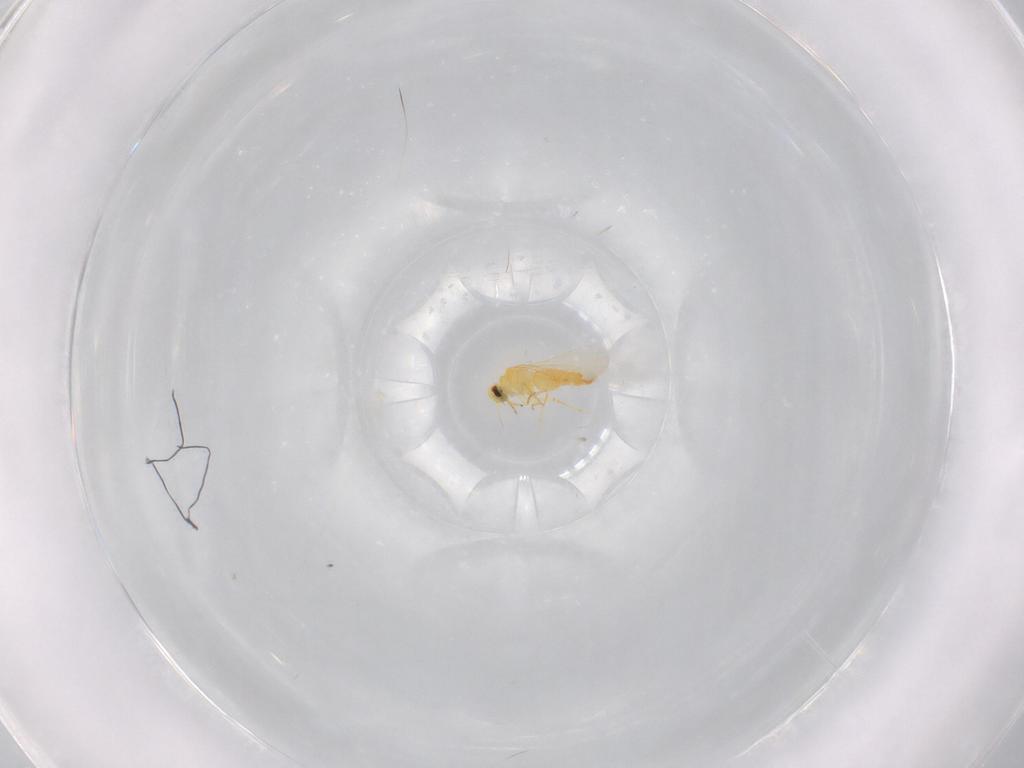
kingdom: Animalia
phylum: Arthropoda
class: Insecta
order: Hemiptera
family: Aleyrodidae
